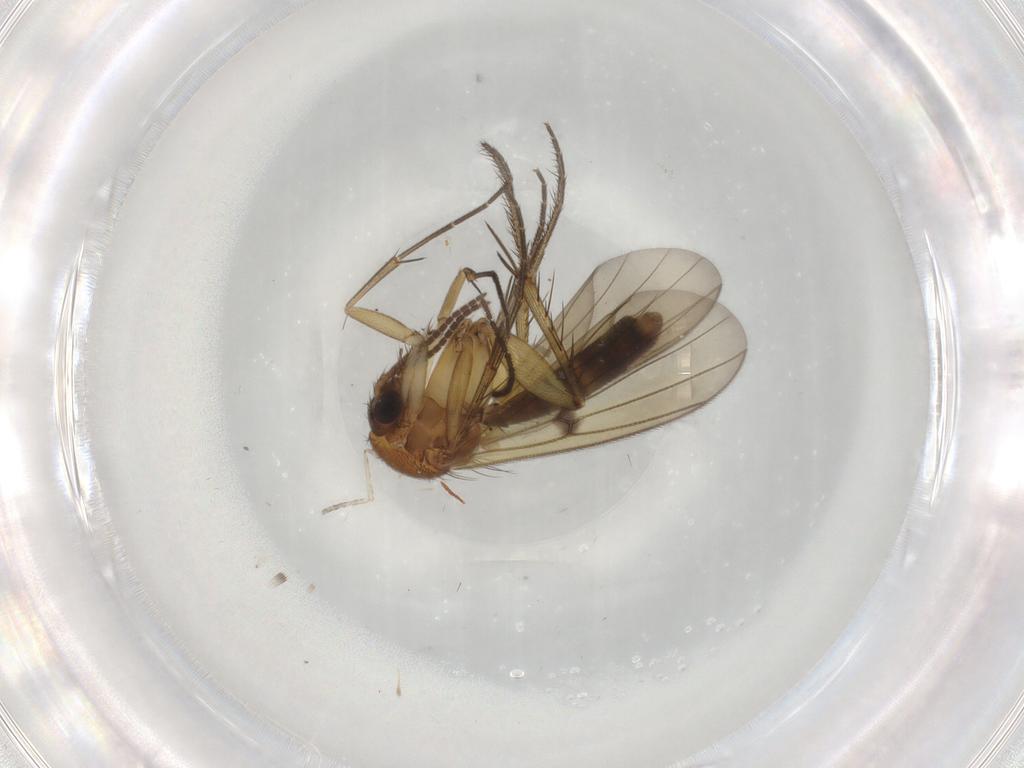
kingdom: Animalia
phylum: Arthropoda
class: Insecta
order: Diptera
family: Cecidomyiidae
